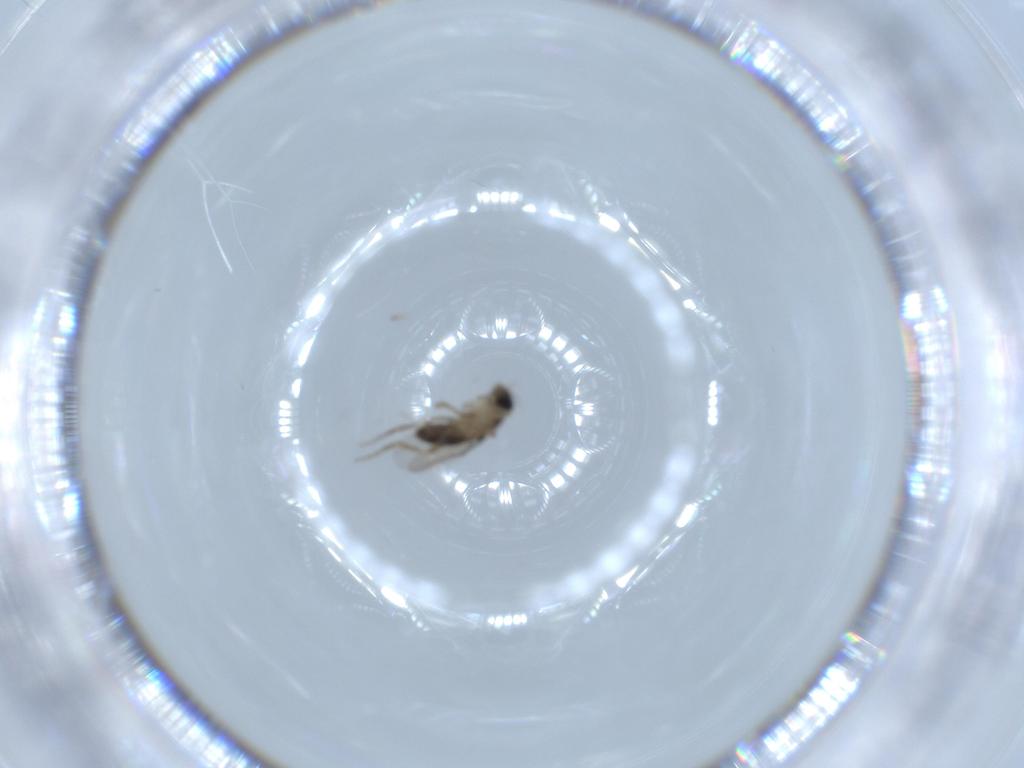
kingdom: Animalia
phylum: Arthropoda
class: Insecta
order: Diptera
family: Phoridae
